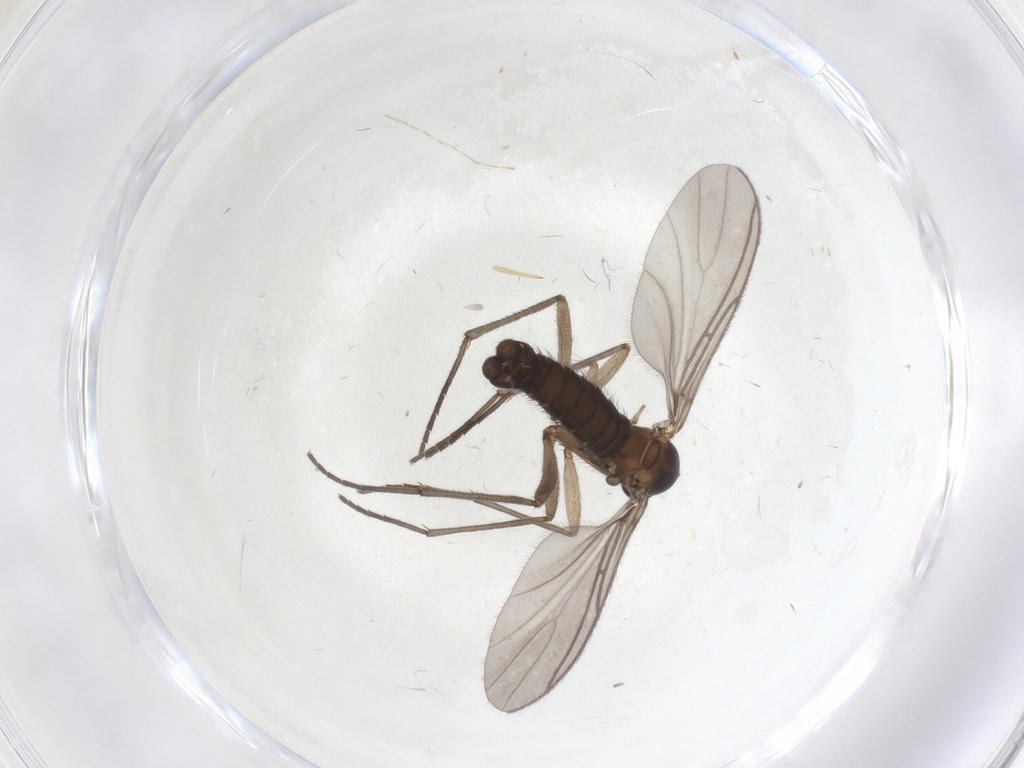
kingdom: Animalia
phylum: Arthropoda
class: Insecta
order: Diptera
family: Sciaridae
